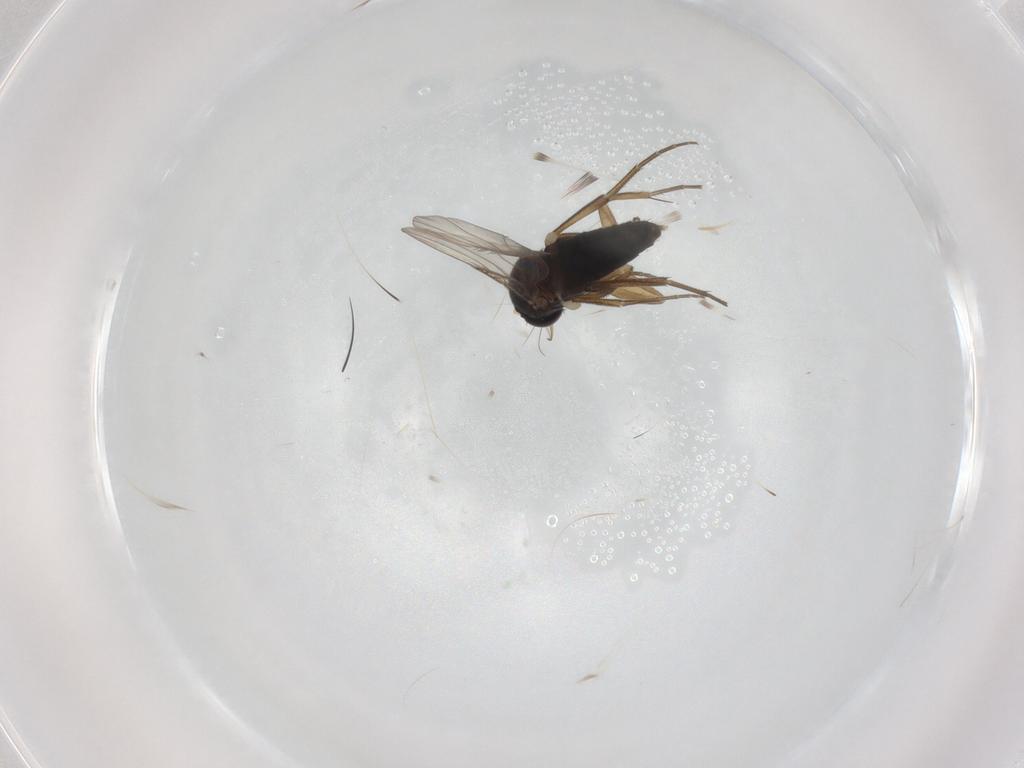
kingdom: Animalia
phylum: Arthropoda
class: Insecta
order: Diptera
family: Phoridae
